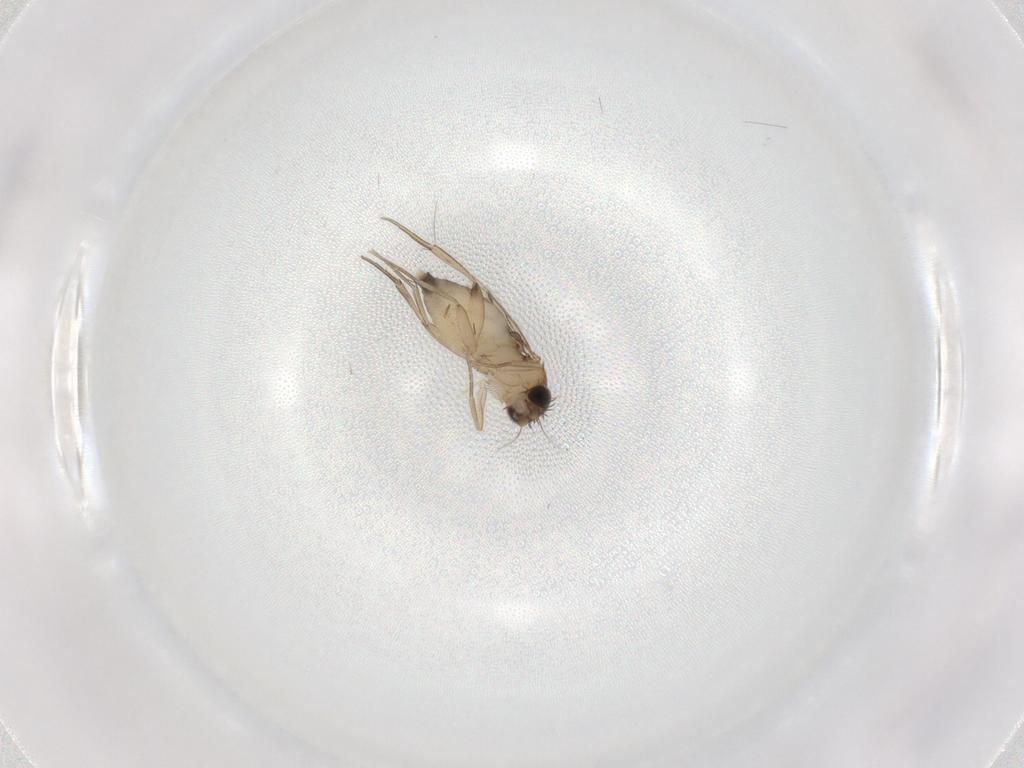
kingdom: Animalia
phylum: Arthropoda
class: Insecta
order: Diptera
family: Phoridae
